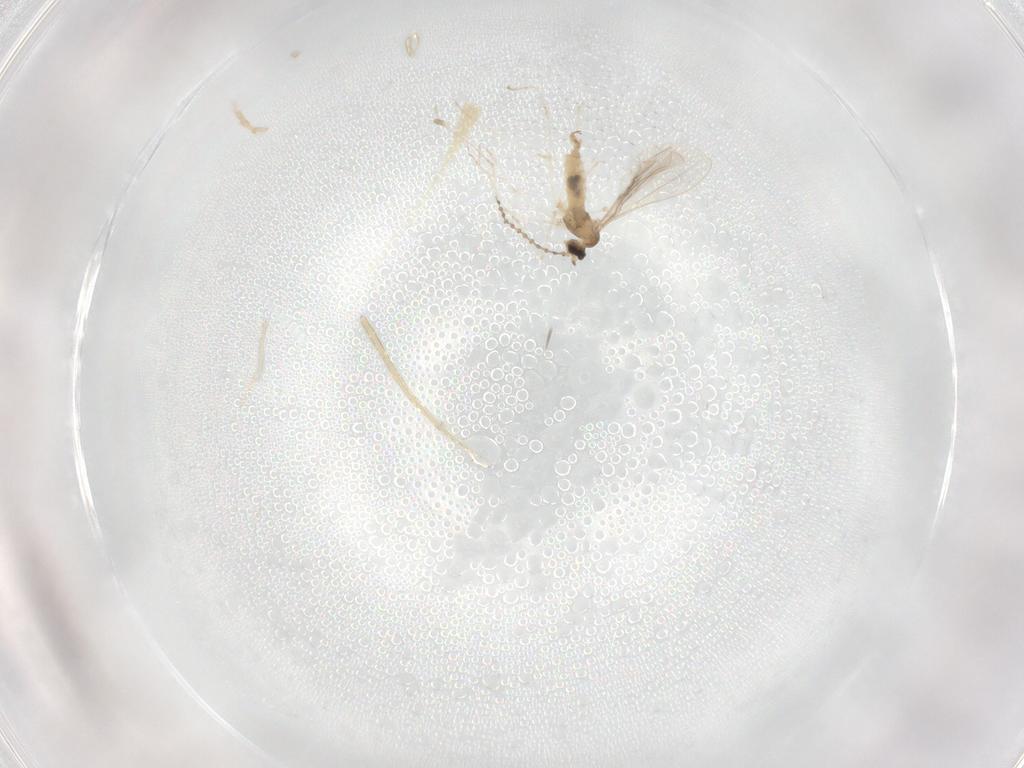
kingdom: Animalia
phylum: Arthropoda
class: Insecta
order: Diptera
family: Cecidomyiidae
